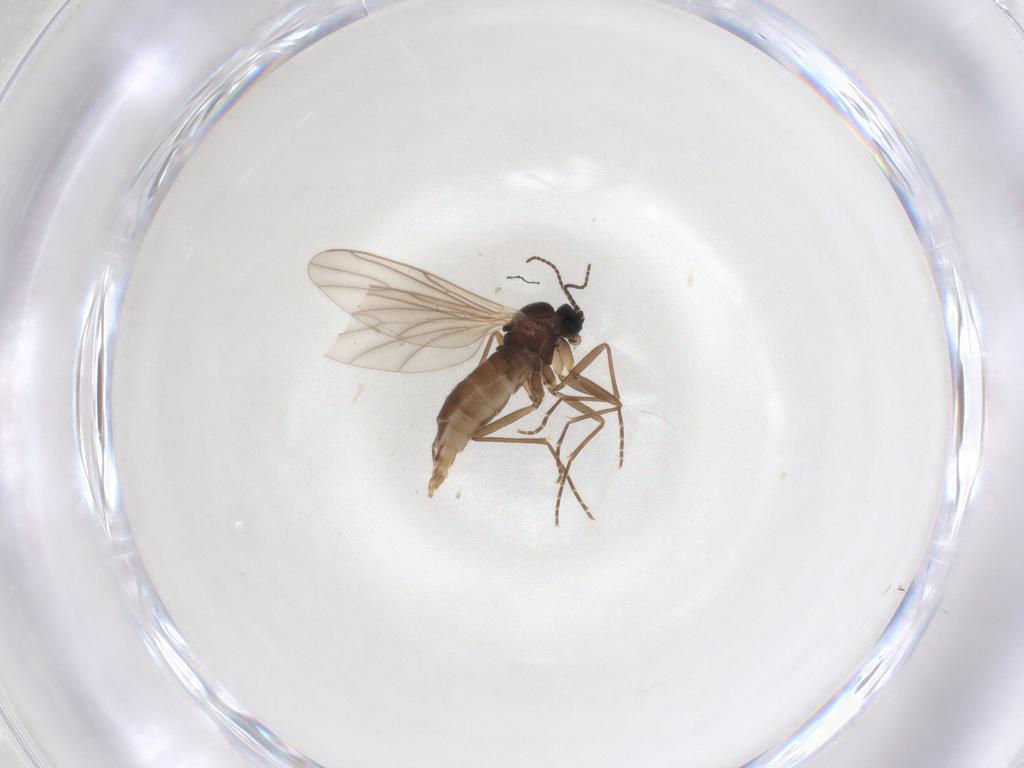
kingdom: Animalia
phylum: Arthropoda
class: Insecta
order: Diptera
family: Sciaridae
